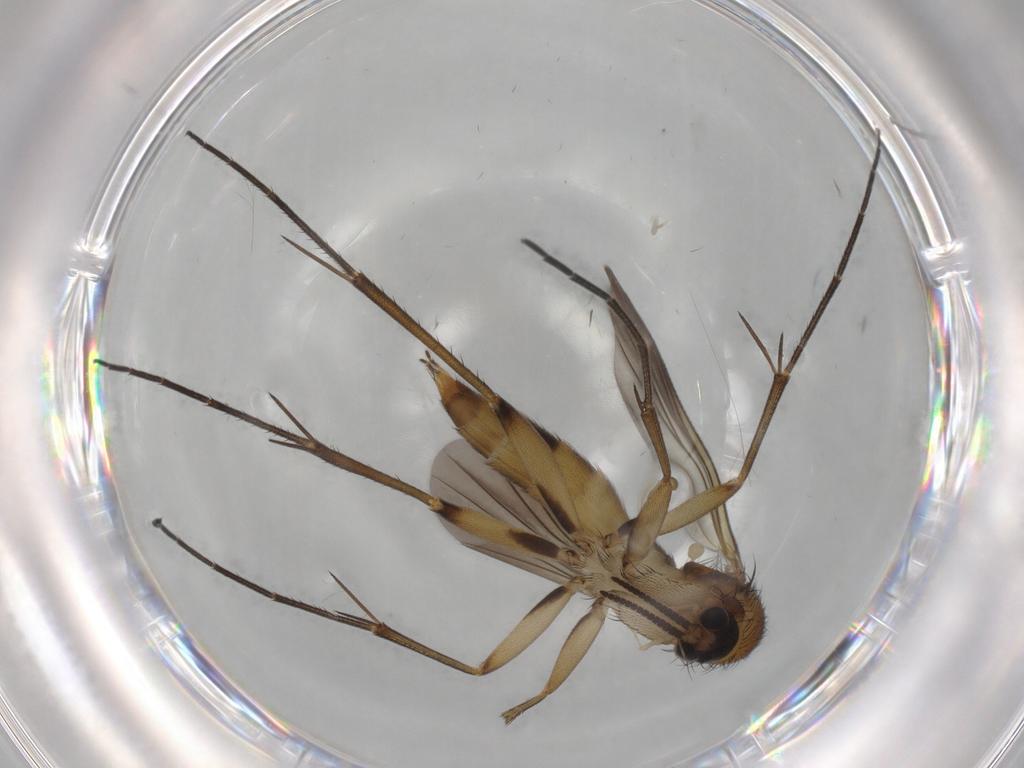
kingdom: Animalia
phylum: Arthropoda
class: Insecta
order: Diptera
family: Mycetophilidae
